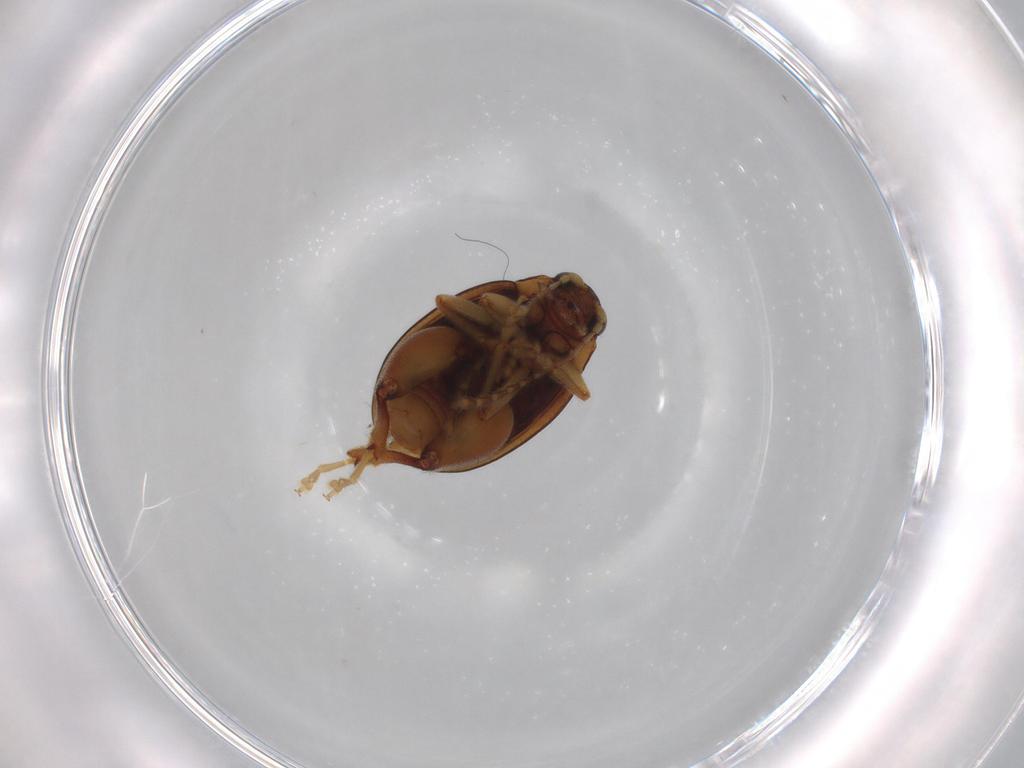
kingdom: Animalia
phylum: Arthropoda
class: Insecta
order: Coleoptera
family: Chrysomelidae
